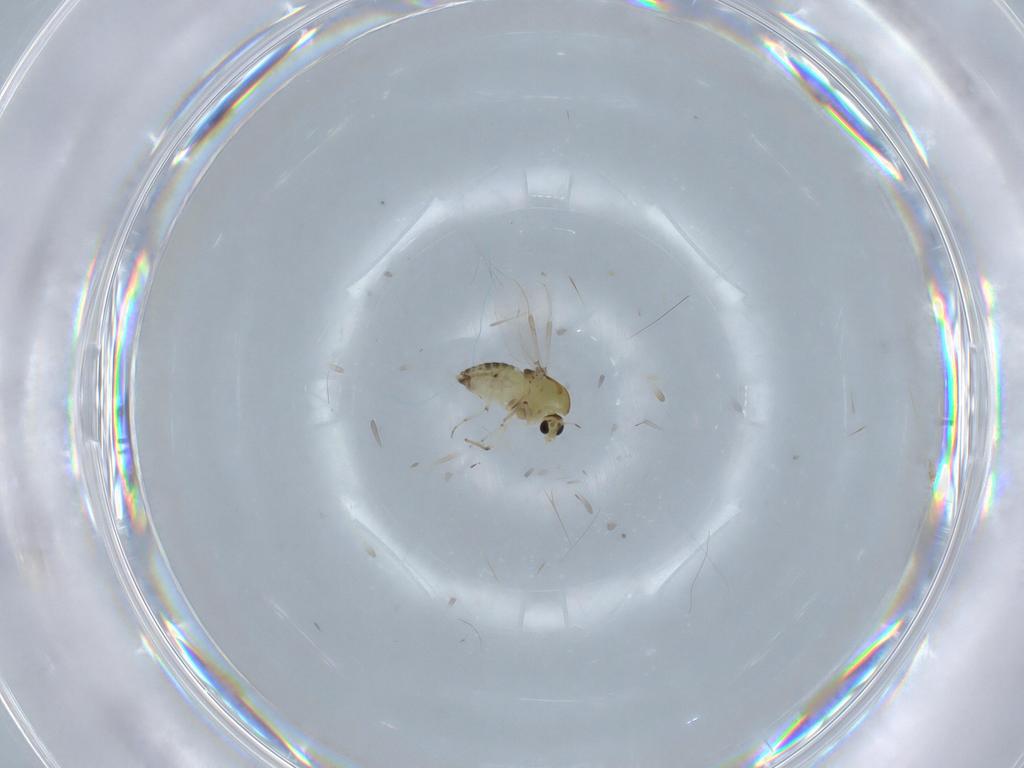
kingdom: Animalia
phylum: Arthropoda
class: Insecta
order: Diptera
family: Chironomidae
